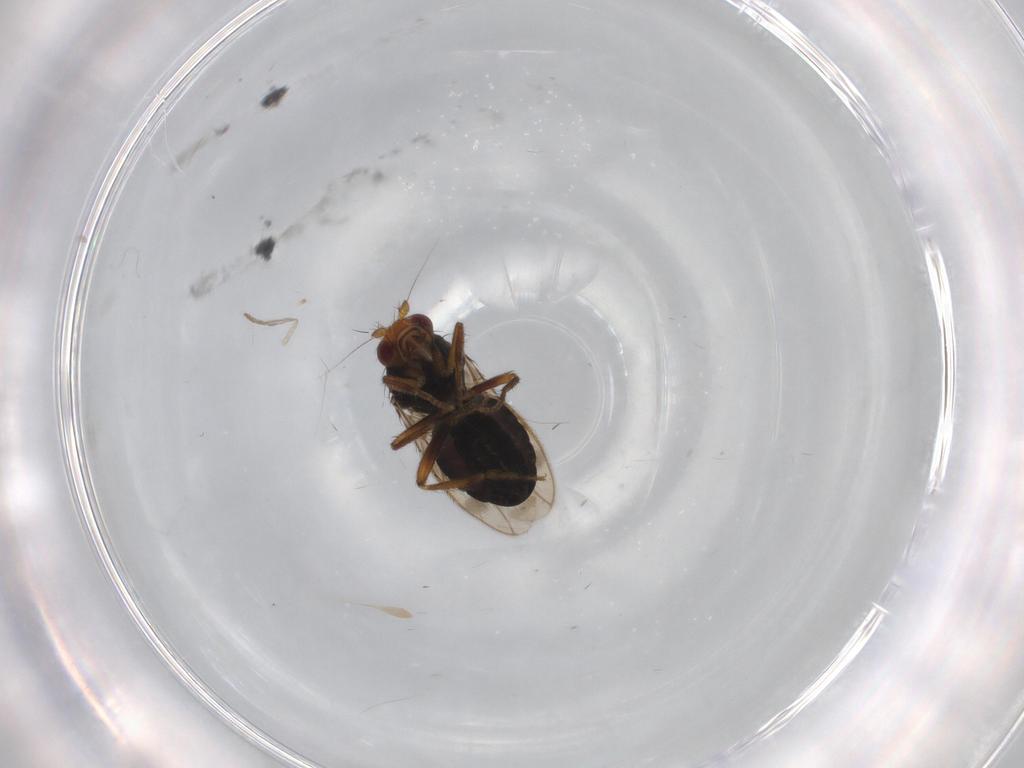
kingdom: Animalia
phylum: Arthropoda
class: Insecta
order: Diptera
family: Sphaeroceridae
